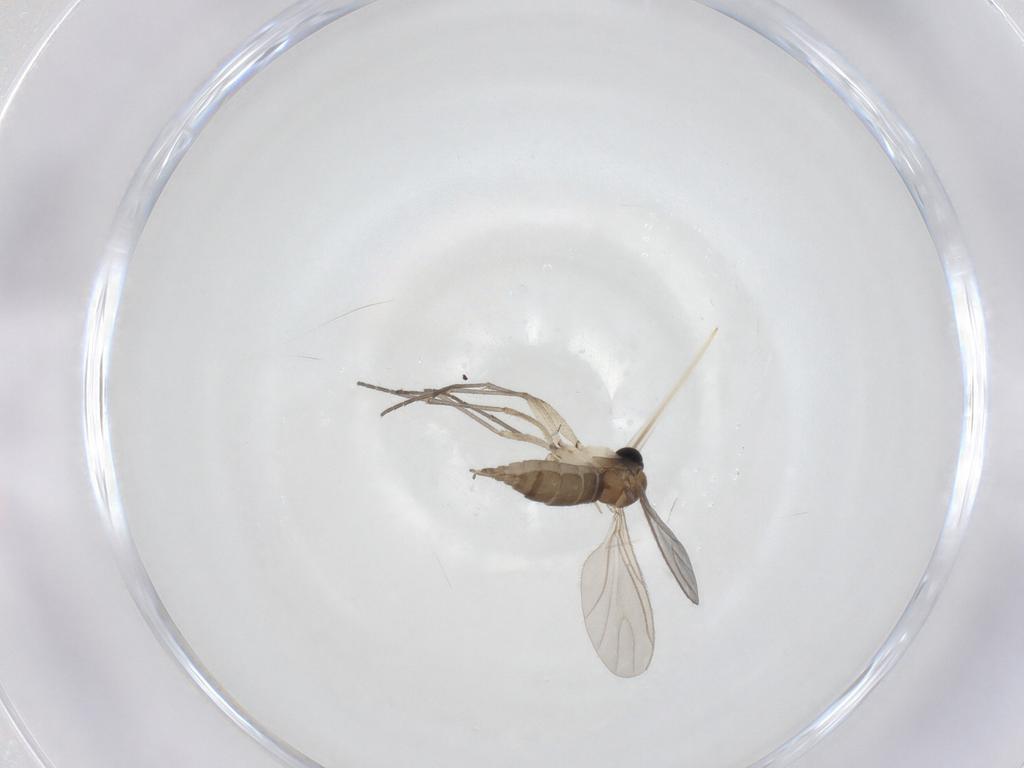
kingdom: Animalia
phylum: Arthropoda
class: Insecta
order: Diptera
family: Sciaridae
